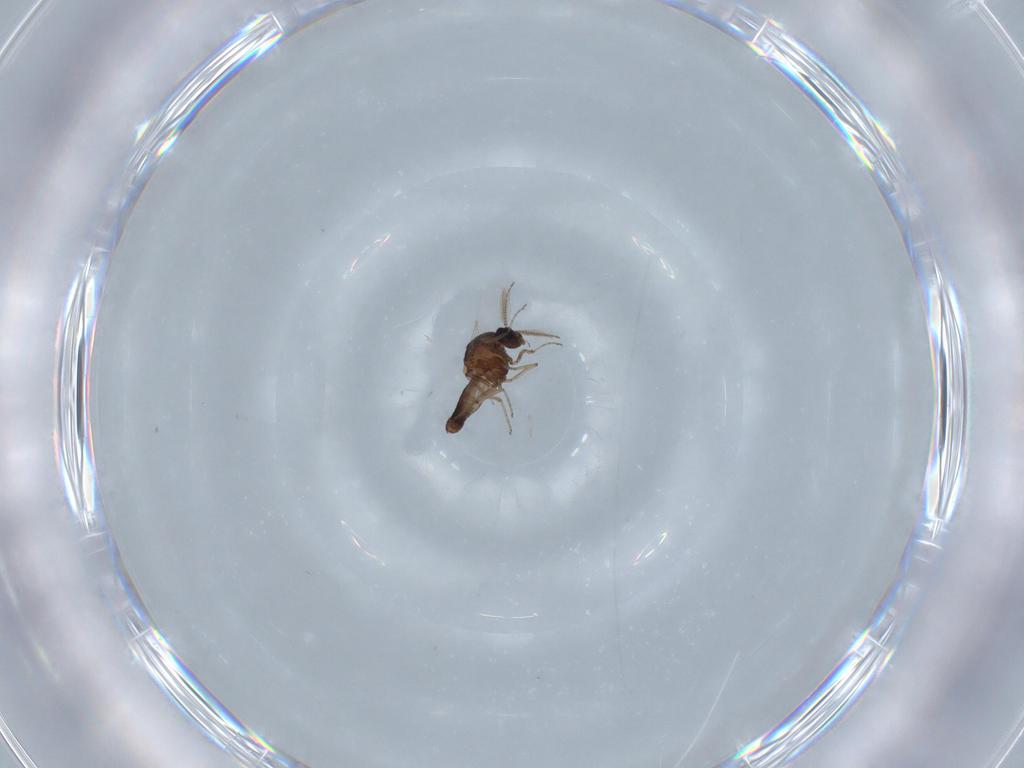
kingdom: Animalia
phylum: Arthropoda
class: Insecta
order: Diptera
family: Ceratopogonidae
